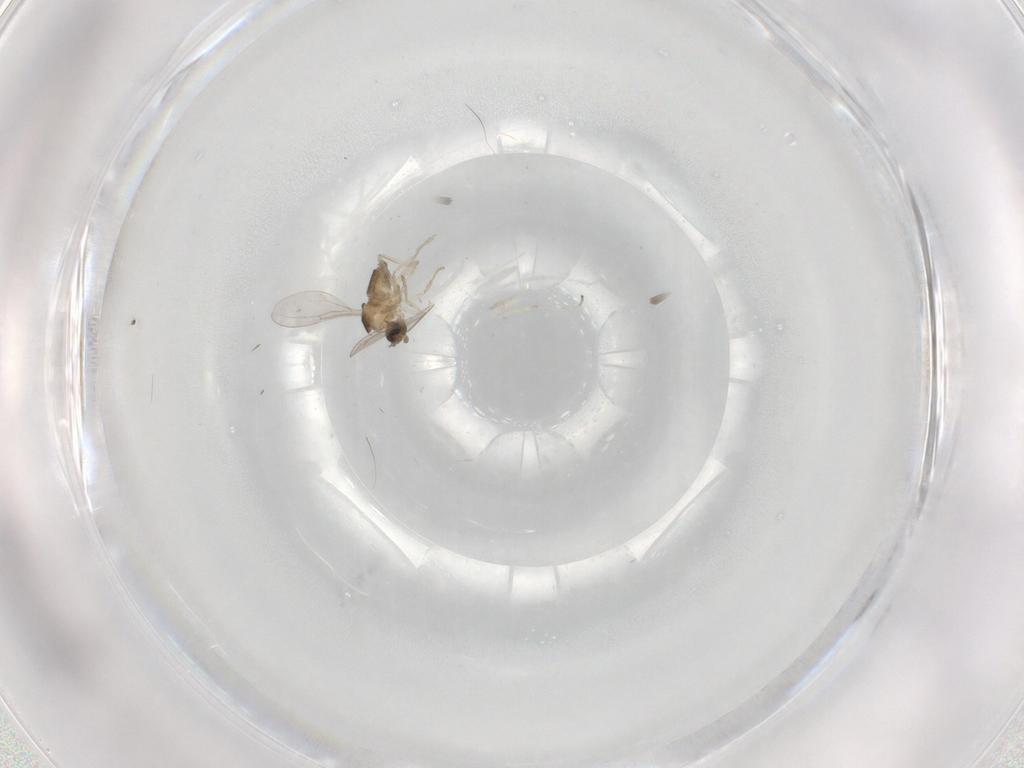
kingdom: Animalia
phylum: Arthropoda
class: Insecta
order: Diptera
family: Cecidomyiidae
